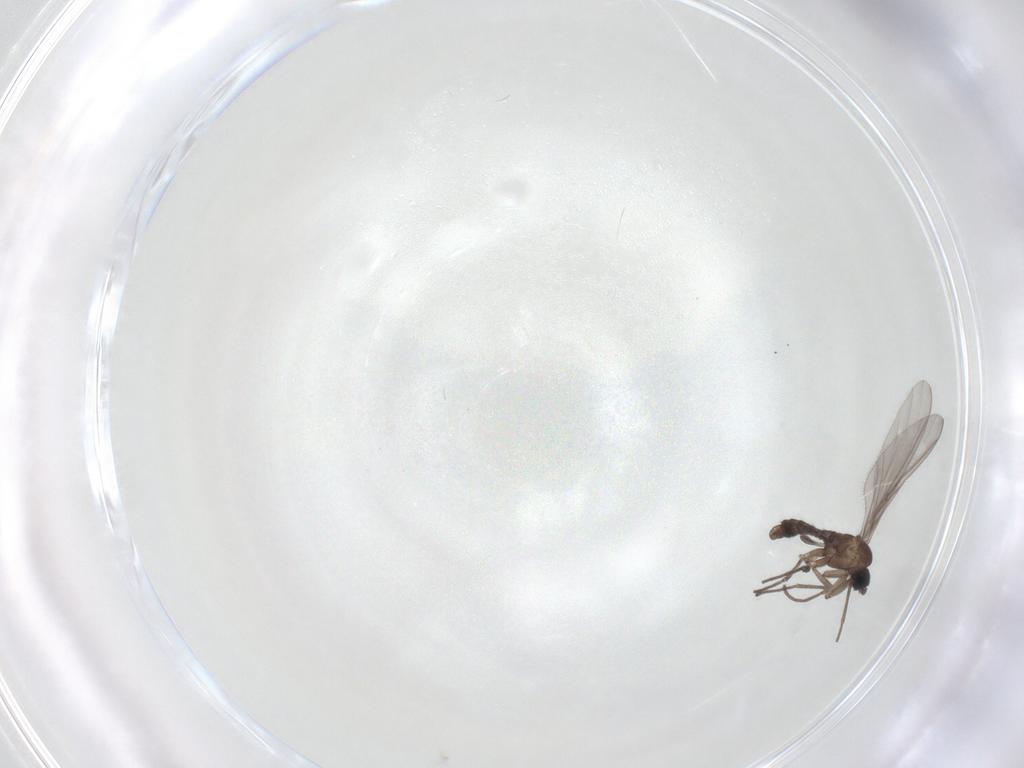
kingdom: Animalia
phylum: Arthropoda
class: Insecta
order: Diptera
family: Sciaridae
